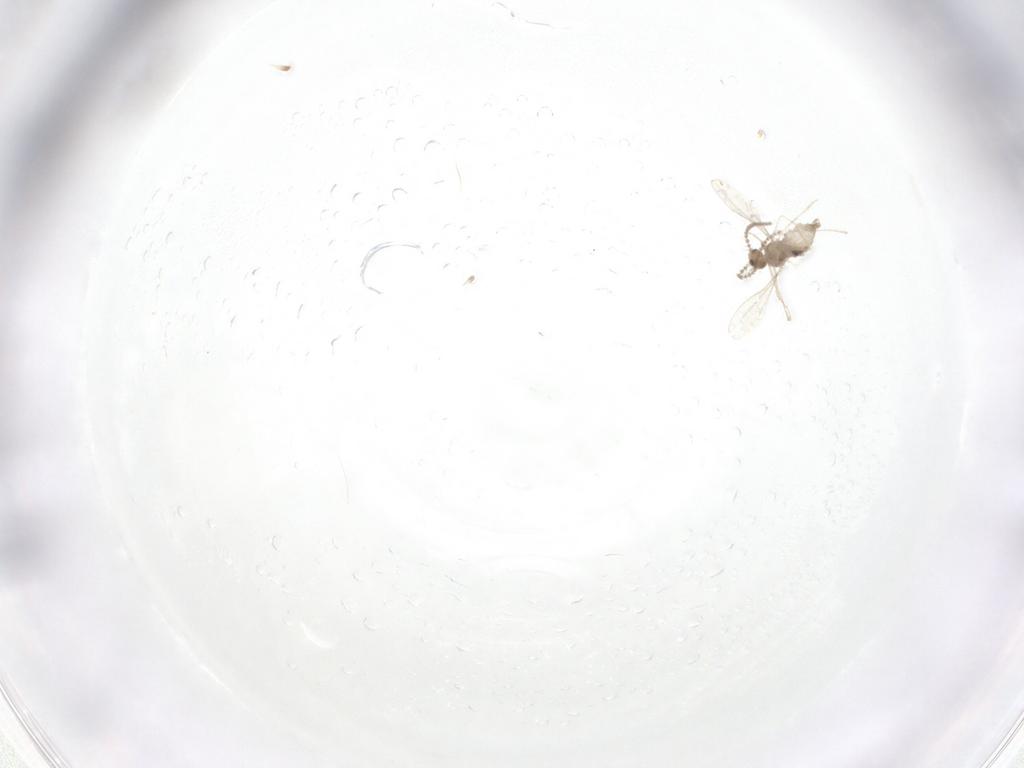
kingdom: Animalia
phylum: Arthropoda
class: Insecta
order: Diptera
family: Cecidomyiidae
